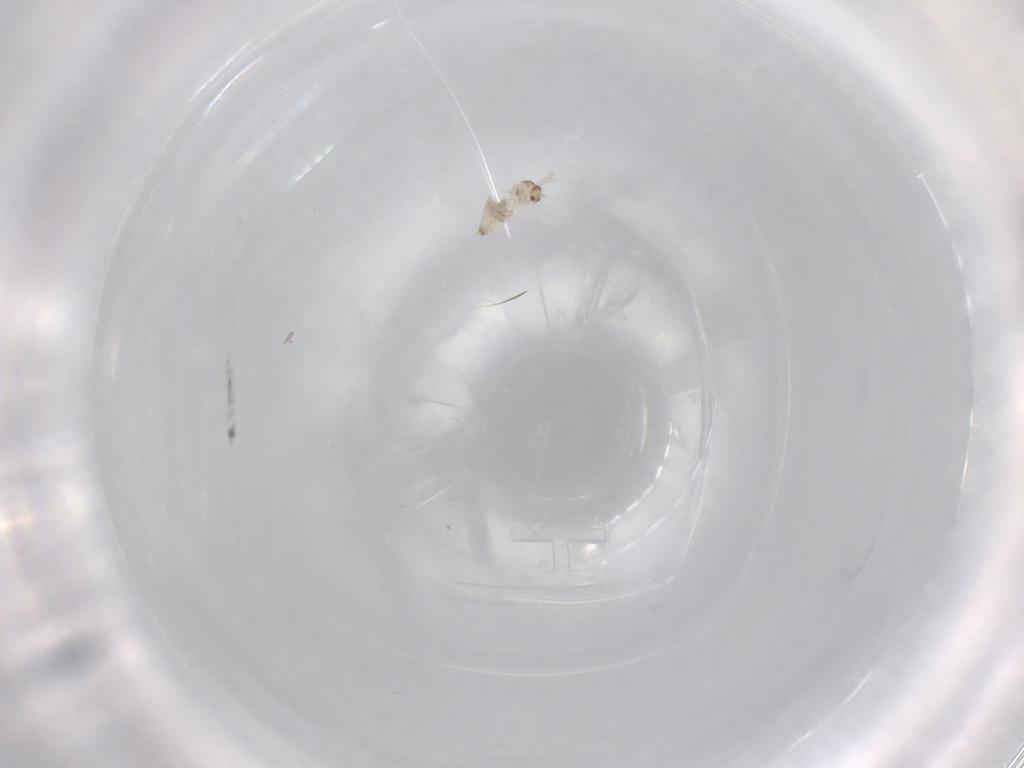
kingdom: Animalia
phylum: Arthropoda
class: Insecta
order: Diptera
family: Cecidomyiidae
